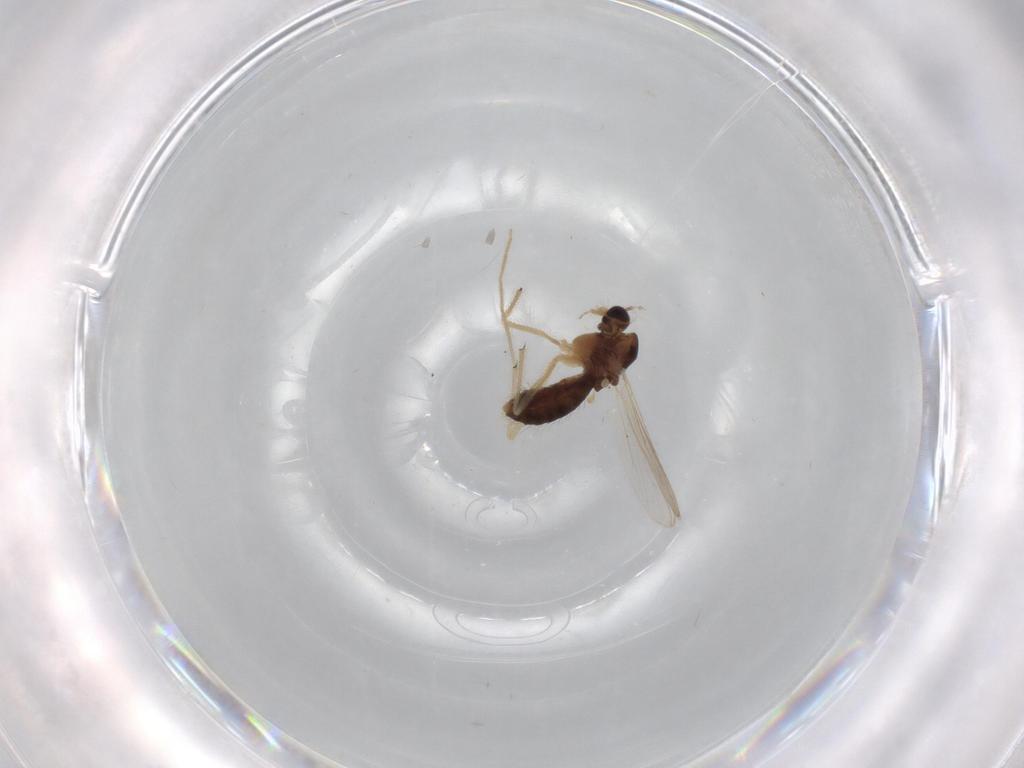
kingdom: Animalia
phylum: Arthropoda
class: Insecta
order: Diptera
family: Chironomidae
